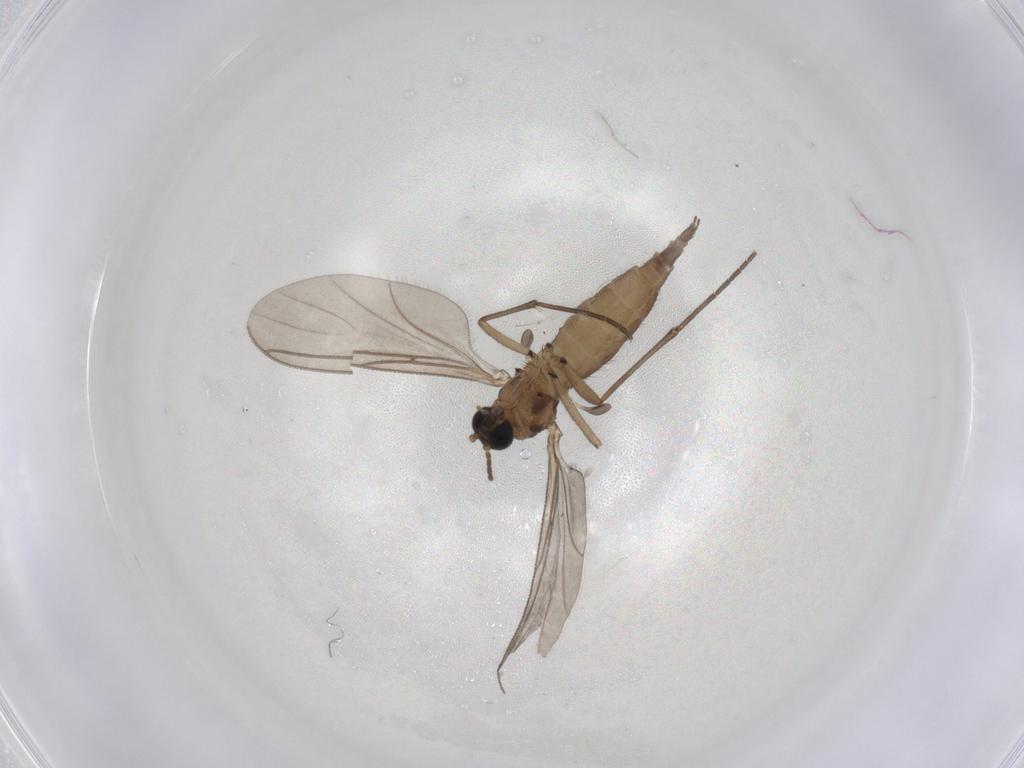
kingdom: Animalia
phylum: Arthropoda
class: Insecta
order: Diptera
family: Sciaridae
